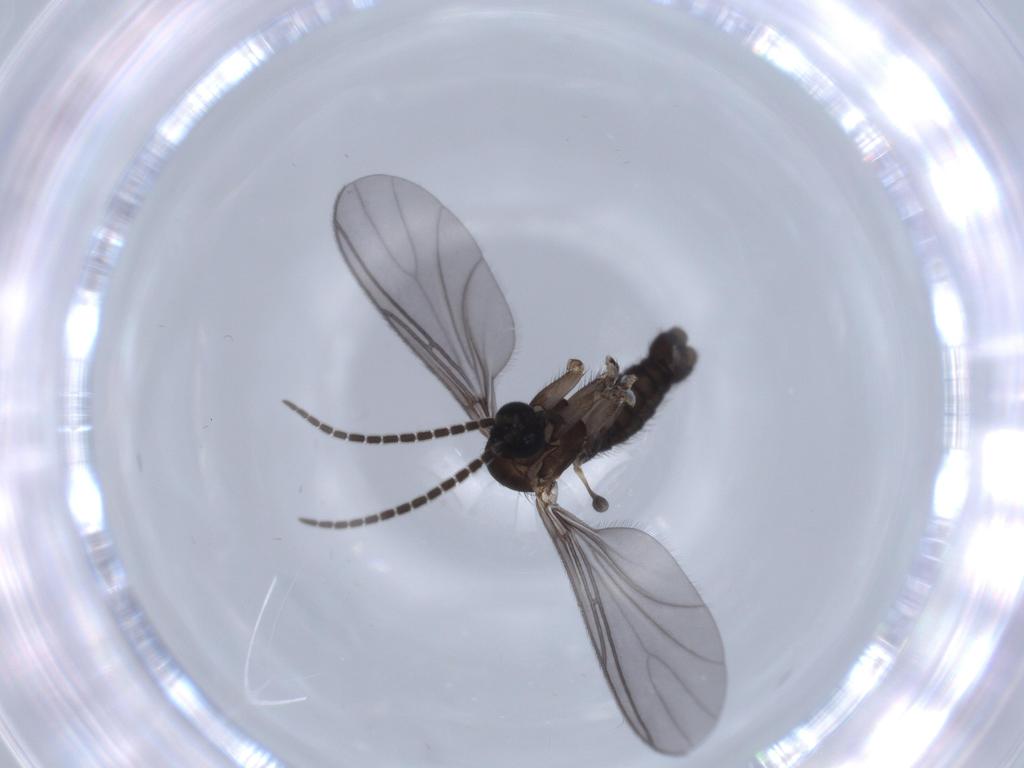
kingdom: Animalia
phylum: Arthropoda
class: Insecta
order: Diptera
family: Sciaridae
